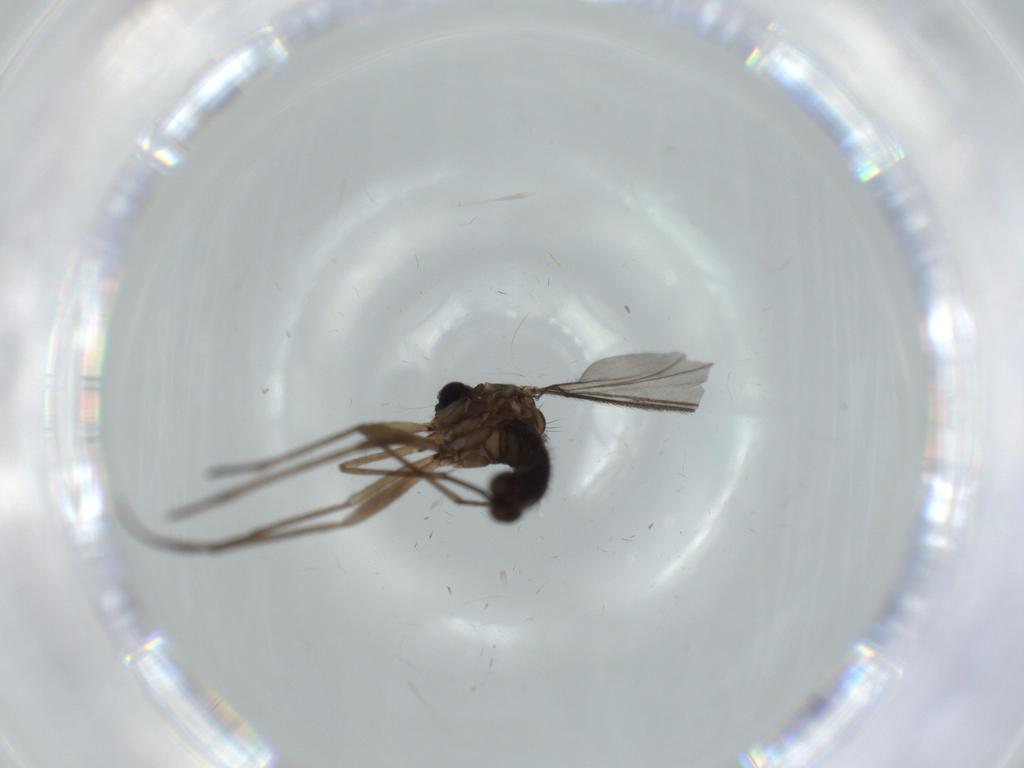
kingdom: Animalia
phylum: Arthropoda
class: Insecta
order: Diptera
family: Sciaridae
